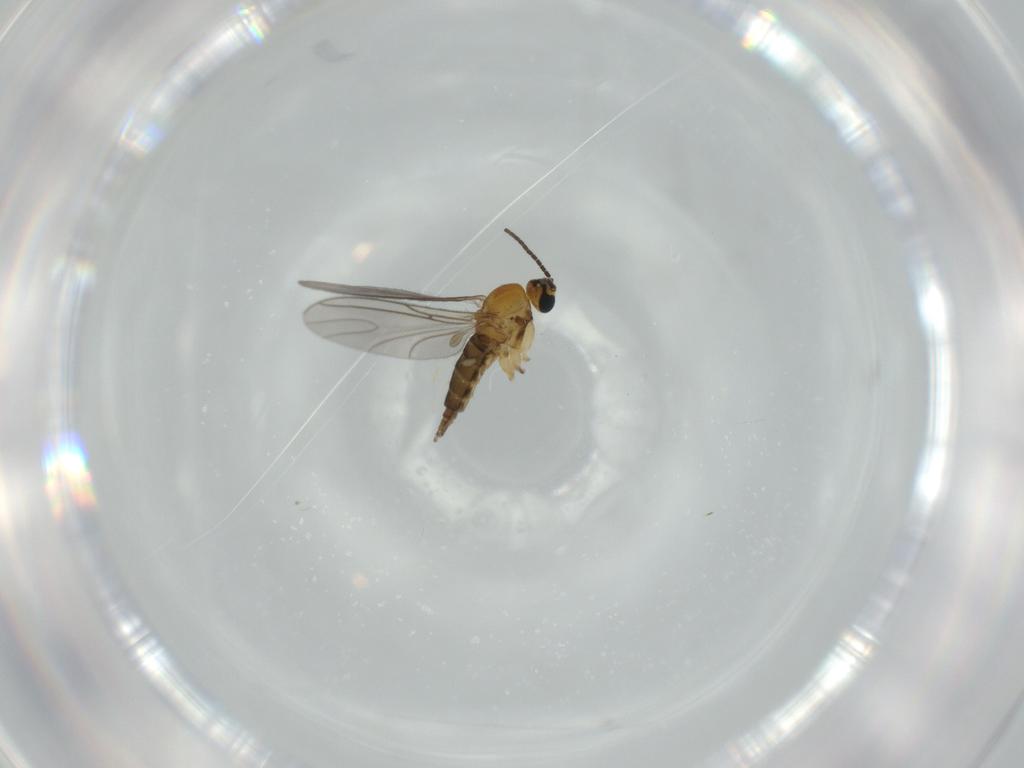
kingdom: Animalia
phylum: Arthropoda
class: Insecta
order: Diptera
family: Sciaridae
